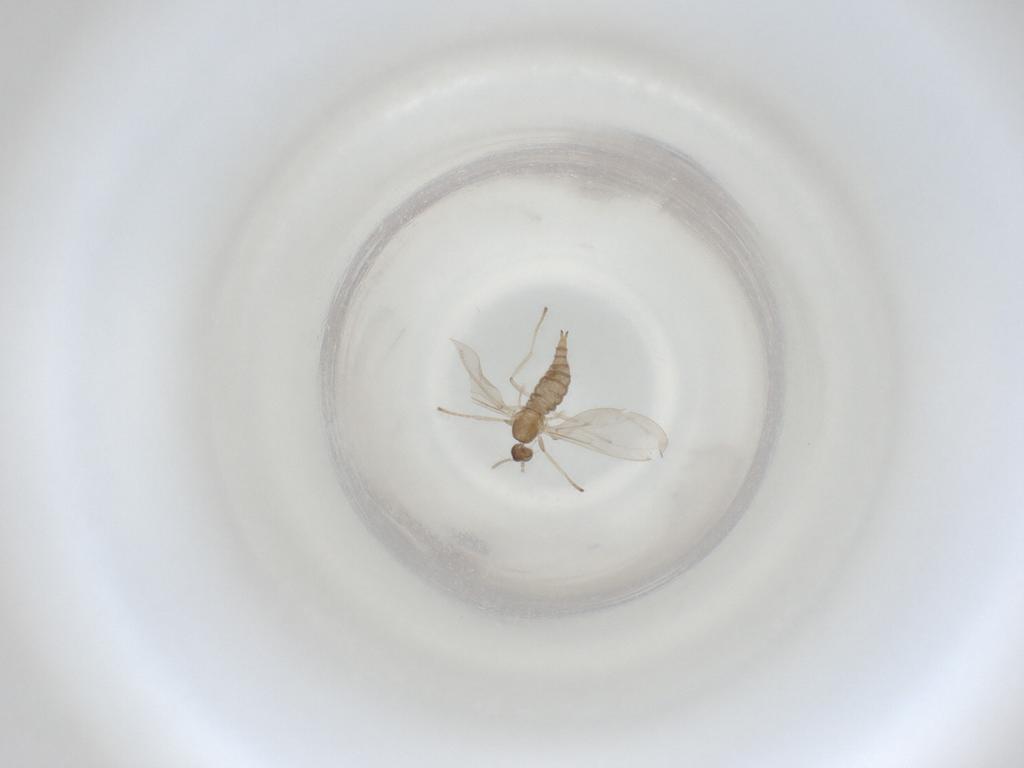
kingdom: Animalia
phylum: Arthropoda
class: Insecta
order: Diptera
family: Cecidomyiidae
